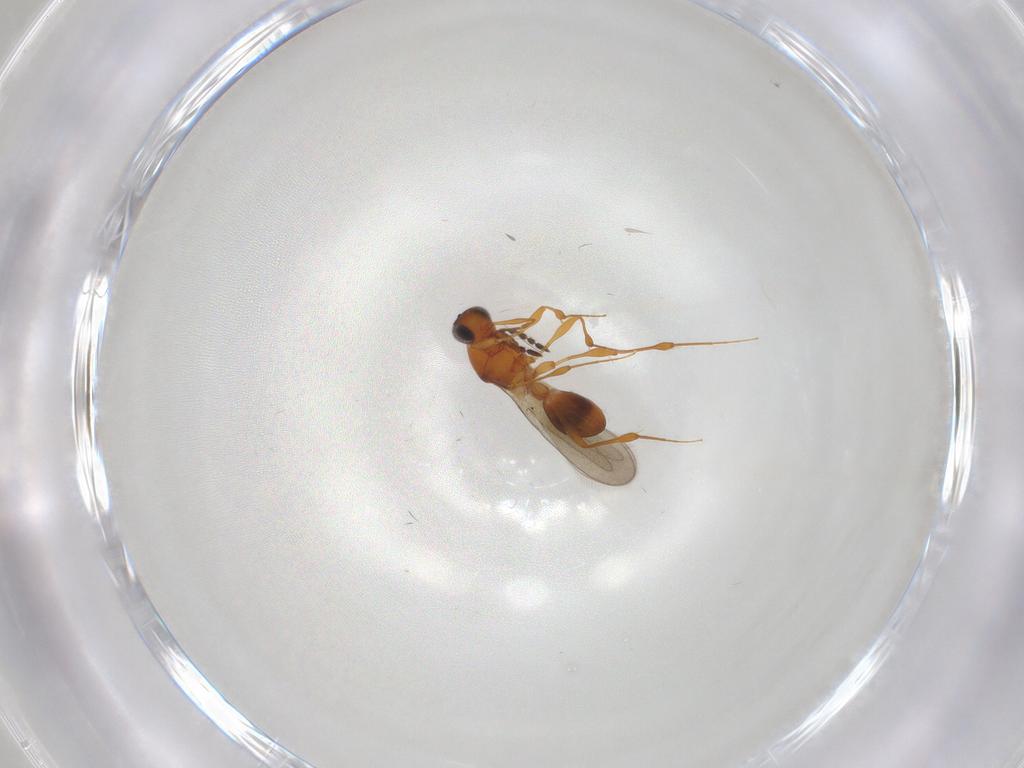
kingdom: Animalia
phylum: Arthropoda
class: Insecta
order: Hymenoptera
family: Platygastridae
